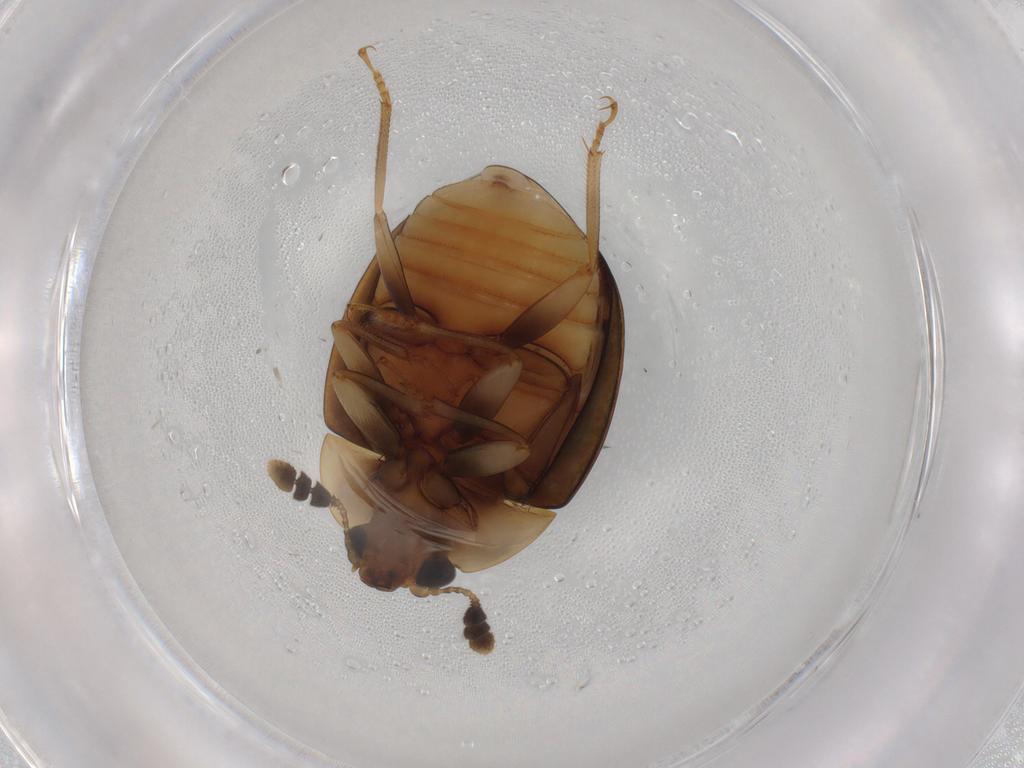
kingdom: Animalia
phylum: Arthropoda
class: Insecta
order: Coleoptera
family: Nitidulidae
